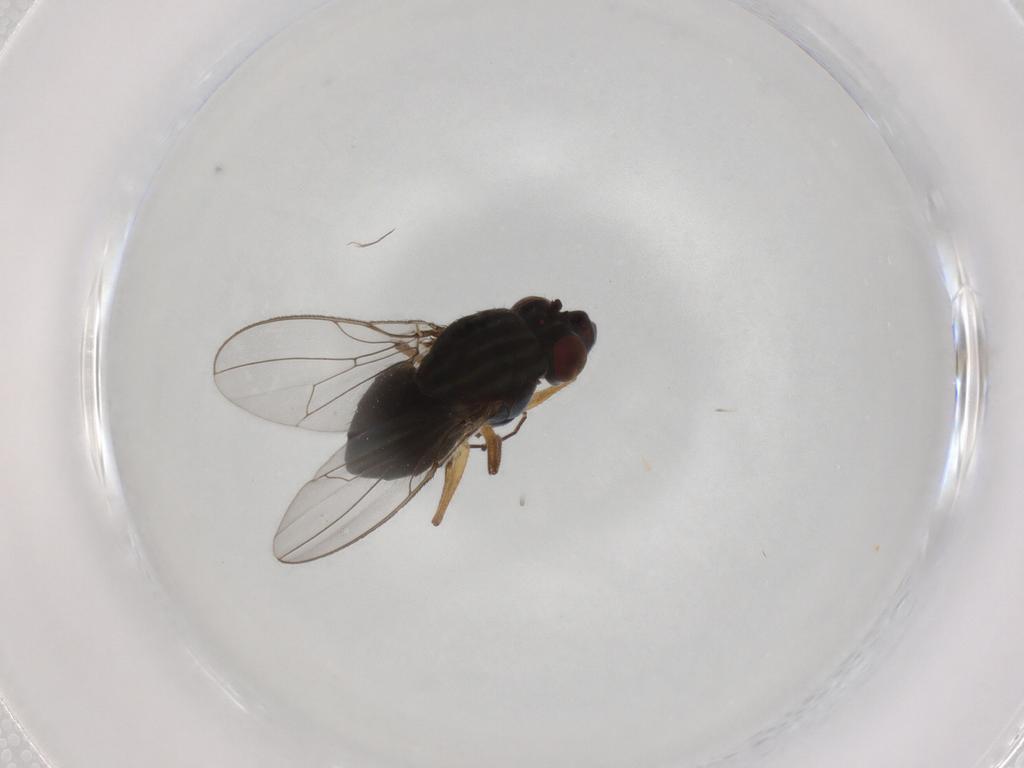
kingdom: Animalia
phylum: Arthropoda
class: Insecta
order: Diptera
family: Ephydridae
